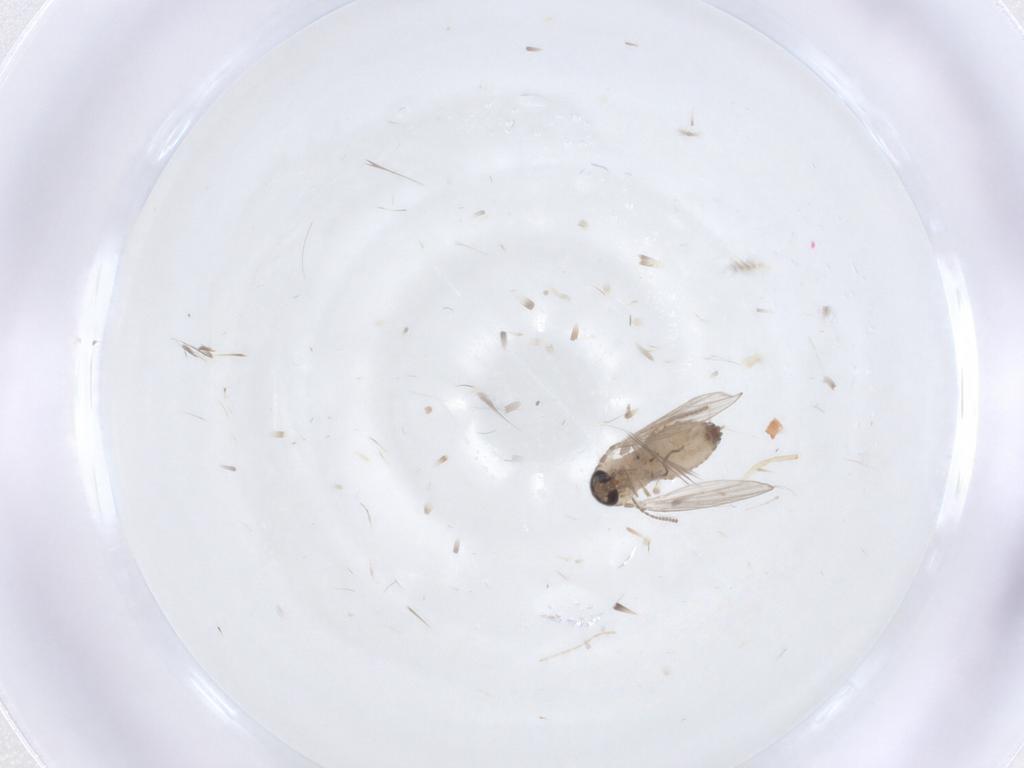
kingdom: Animalia
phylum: Arthropoda
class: Insecta
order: Diptera
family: Psychodidae
